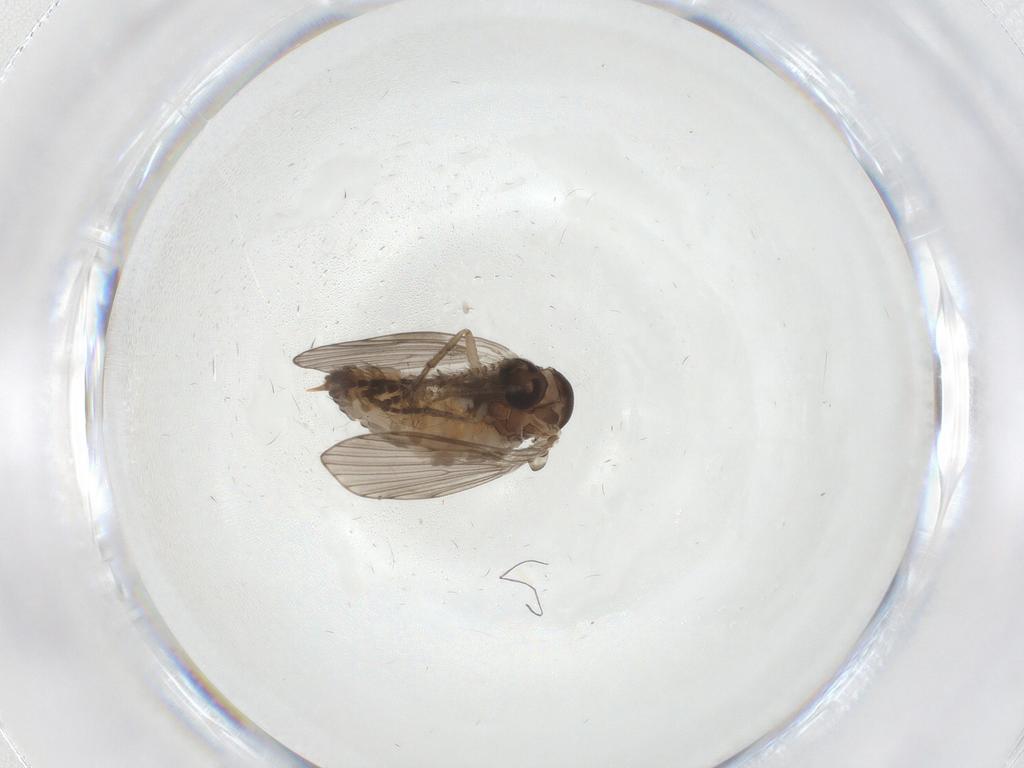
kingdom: Animalia
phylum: Arthropoda
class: Insecta
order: Diptera
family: Psychodidae
